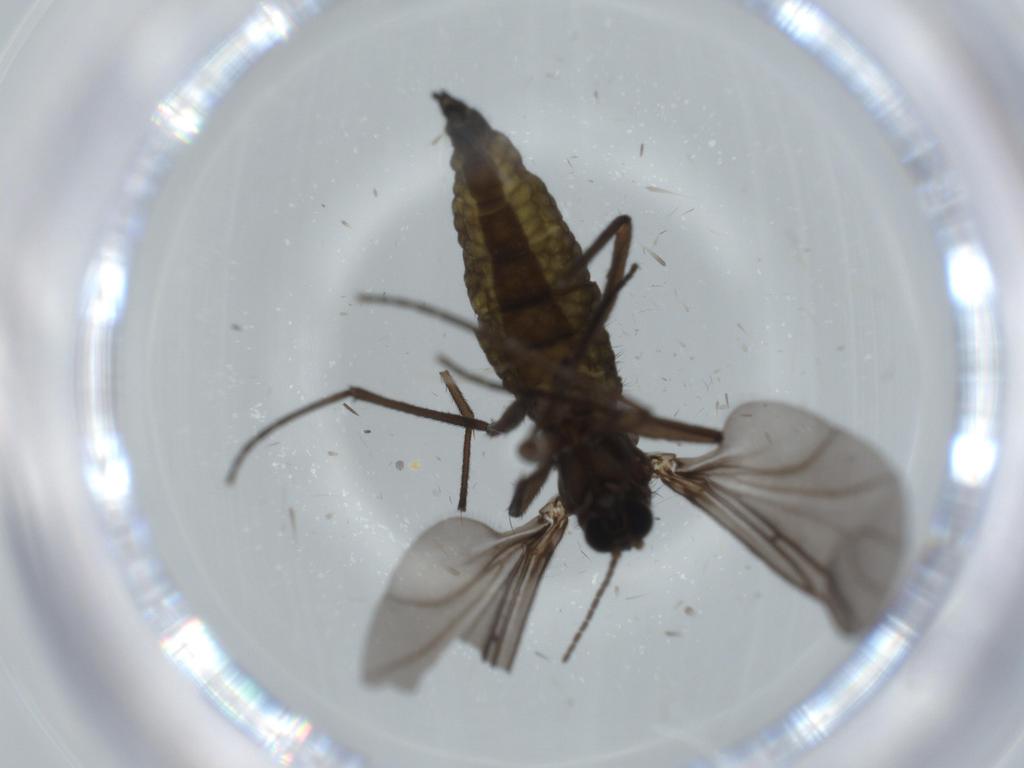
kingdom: Animalia
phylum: Arthropoda
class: Insecta
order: Diptera
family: Sciaridae
